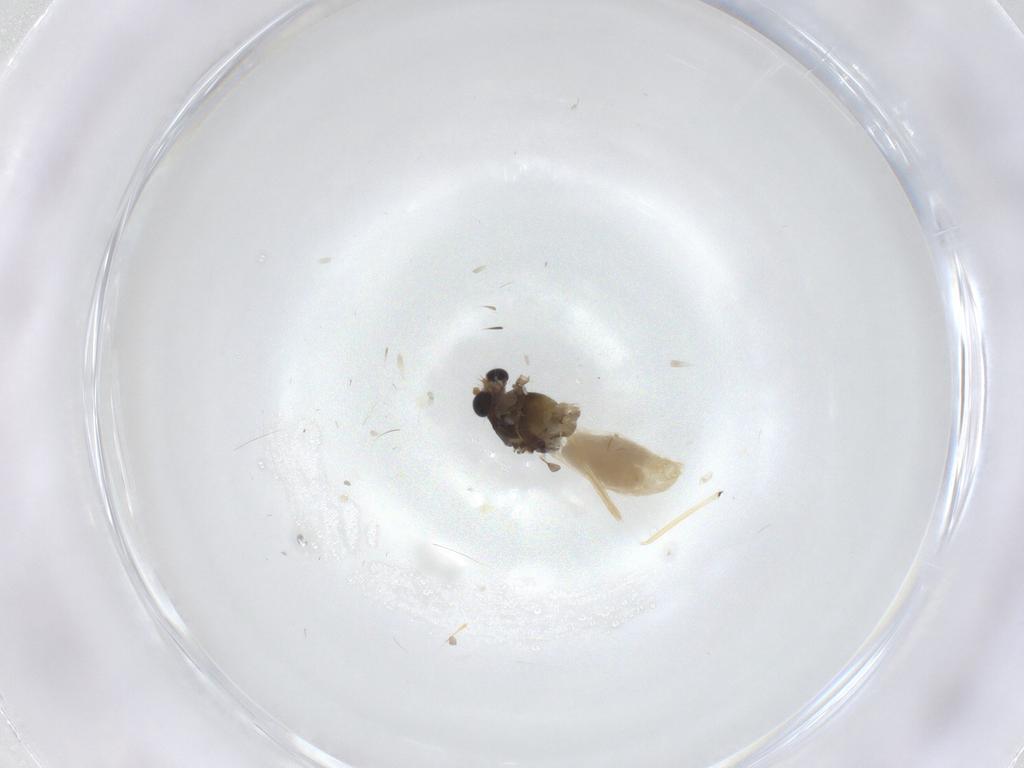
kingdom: Animalia
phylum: Arthropoda
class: Insecta
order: Diptera
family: Chironomidae
